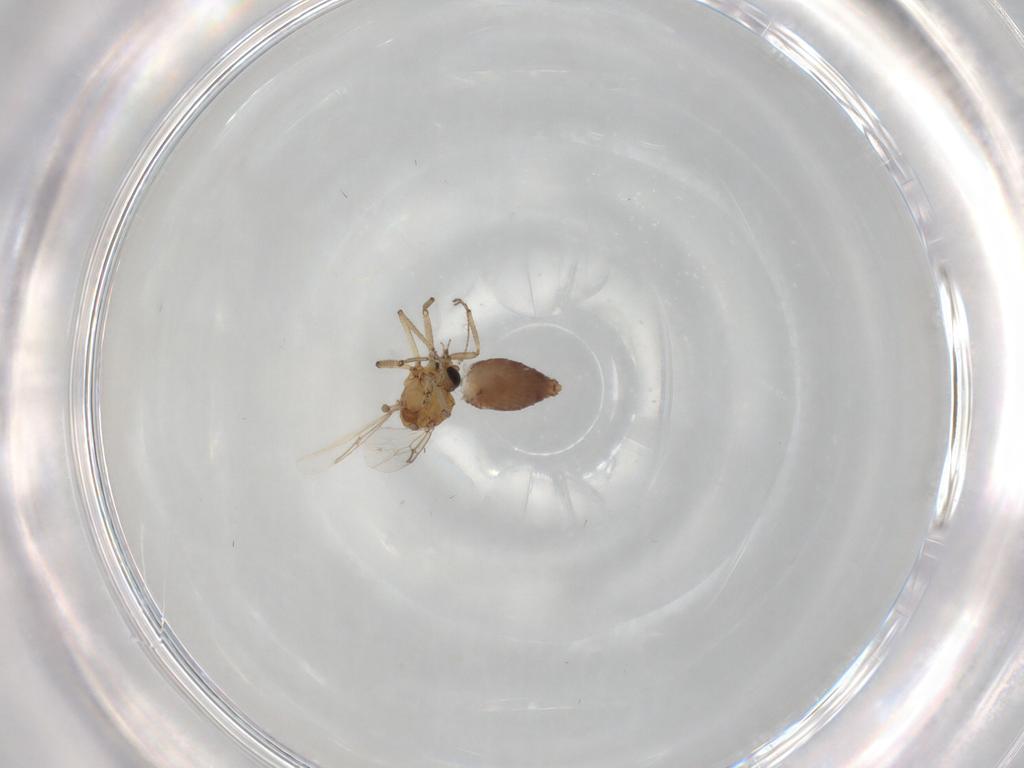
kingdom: Animalia
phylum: Arthropoda
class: Insecta
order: Diptera
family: Ceratopogonidae
